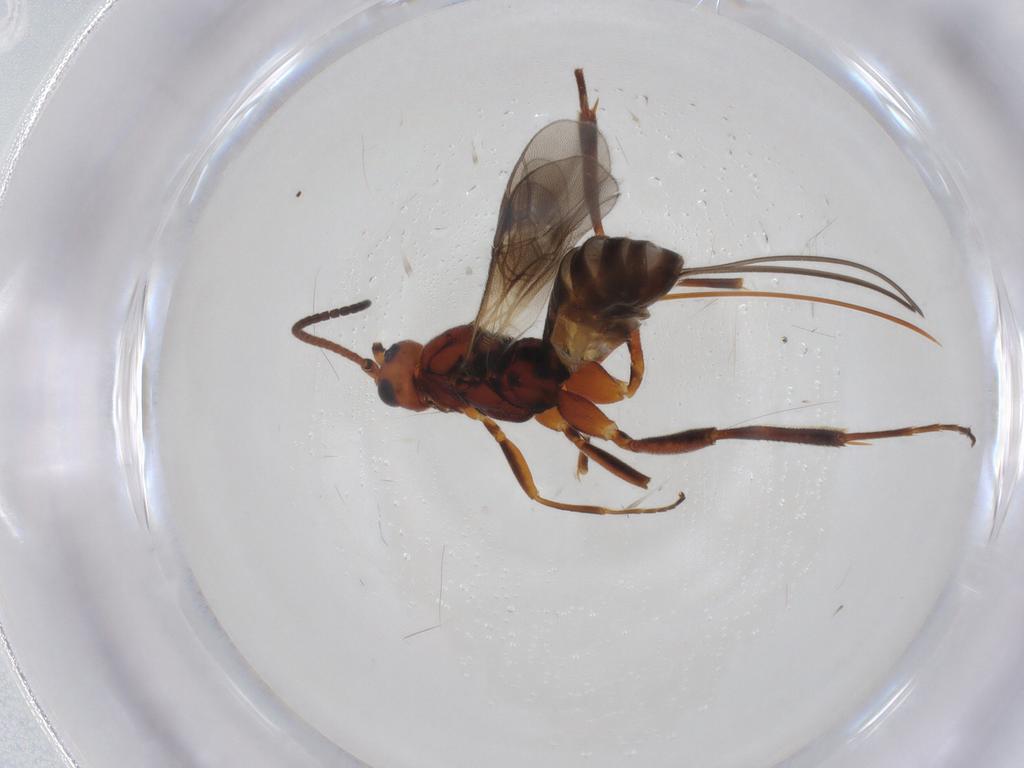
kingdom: Animalia
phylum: Arthropoda
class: Insecta
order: Hymenoptera
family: Braconidae
